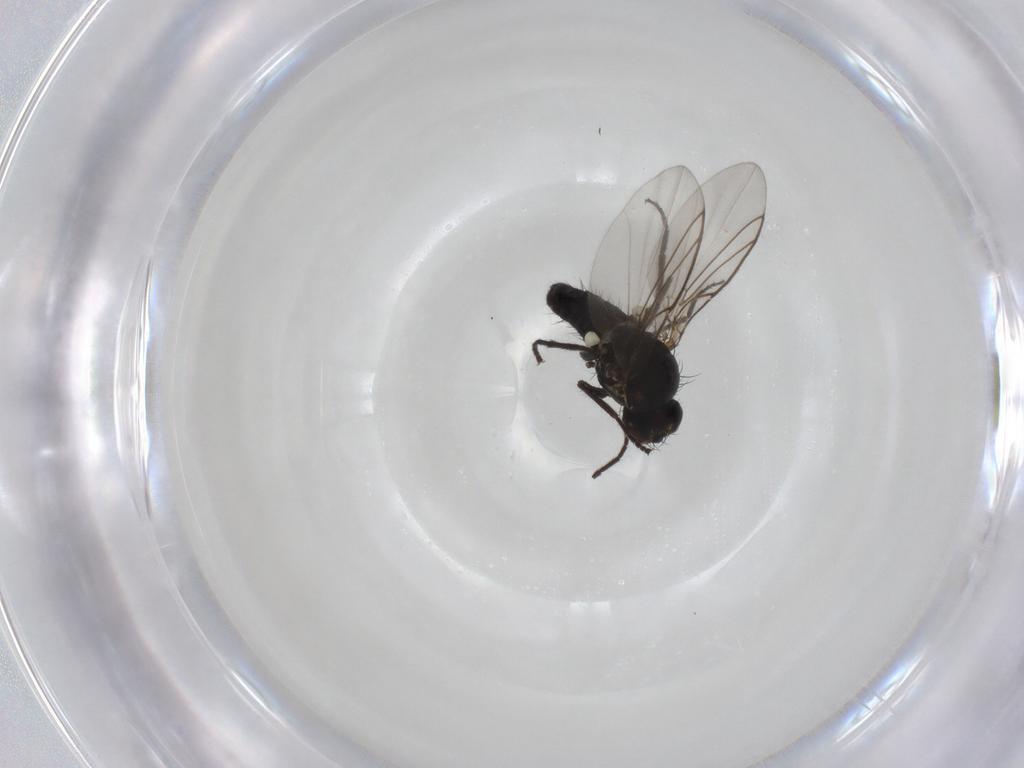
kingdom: Animalia
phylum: Arthropoda
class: Insecta
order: Diptera
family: Agromyzidae
